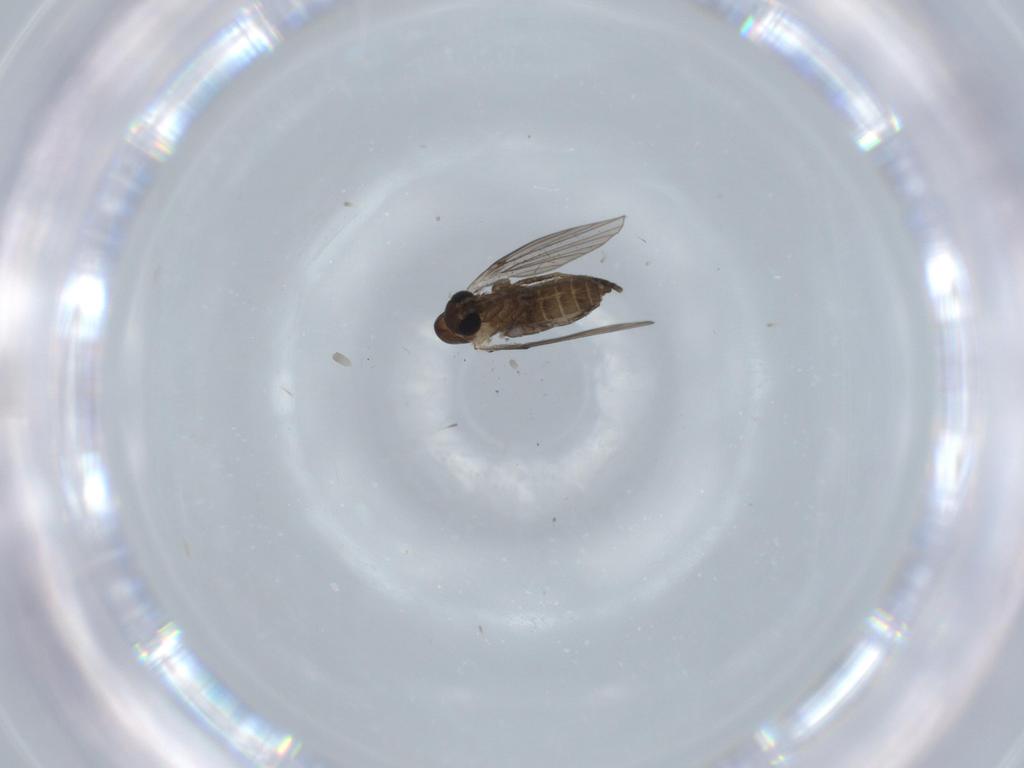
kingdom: Animalia
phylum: Arthropoda
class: Insecta
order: Diptera
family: Psychodidae
